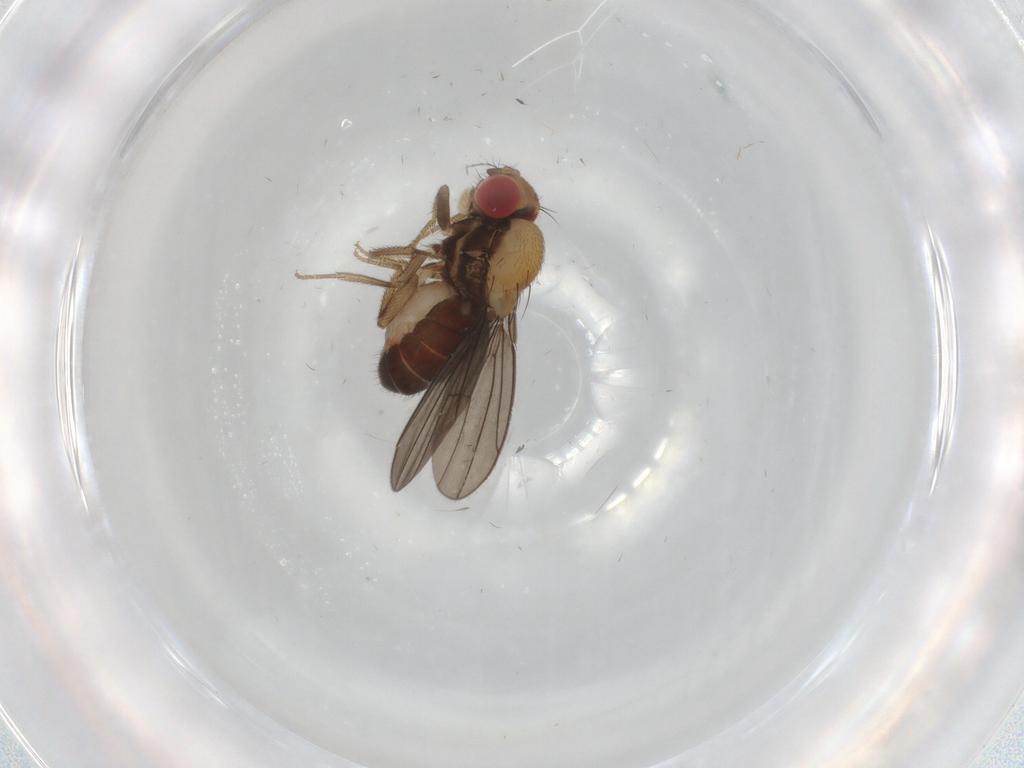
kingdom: Animalia
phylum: Arthropoda
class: Insecta
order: Diptera
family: Drosophilidae
